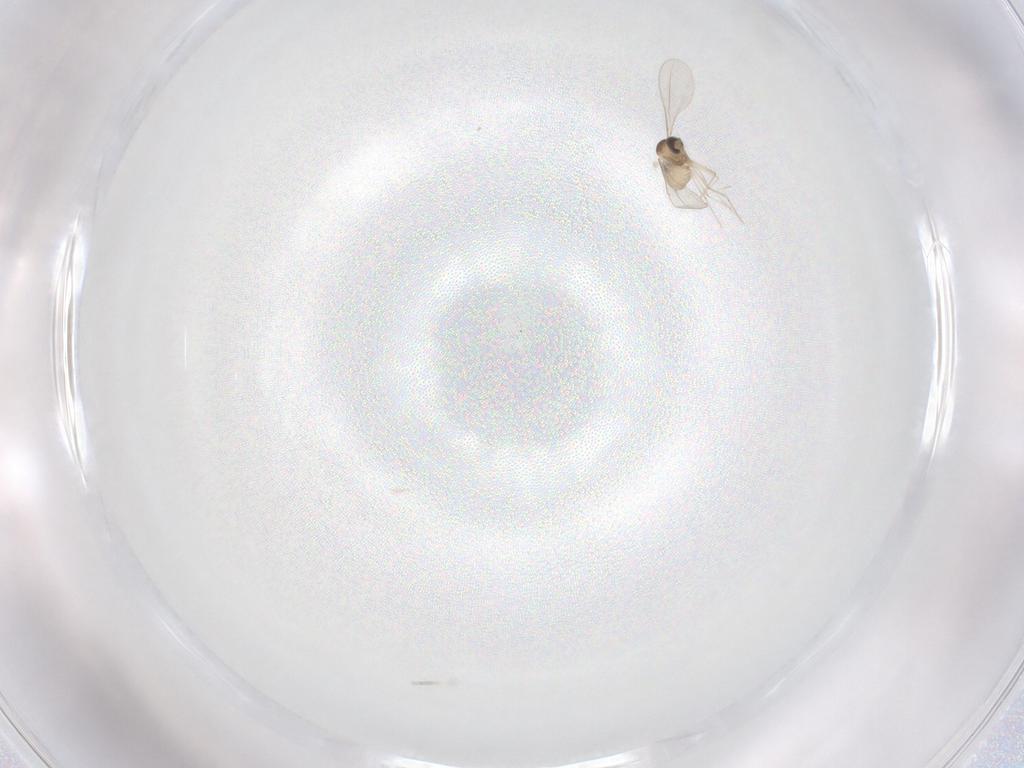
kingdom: Animalia
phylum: Arthropoda
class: Insecta
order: Diptera
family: Cecidomyiidae
